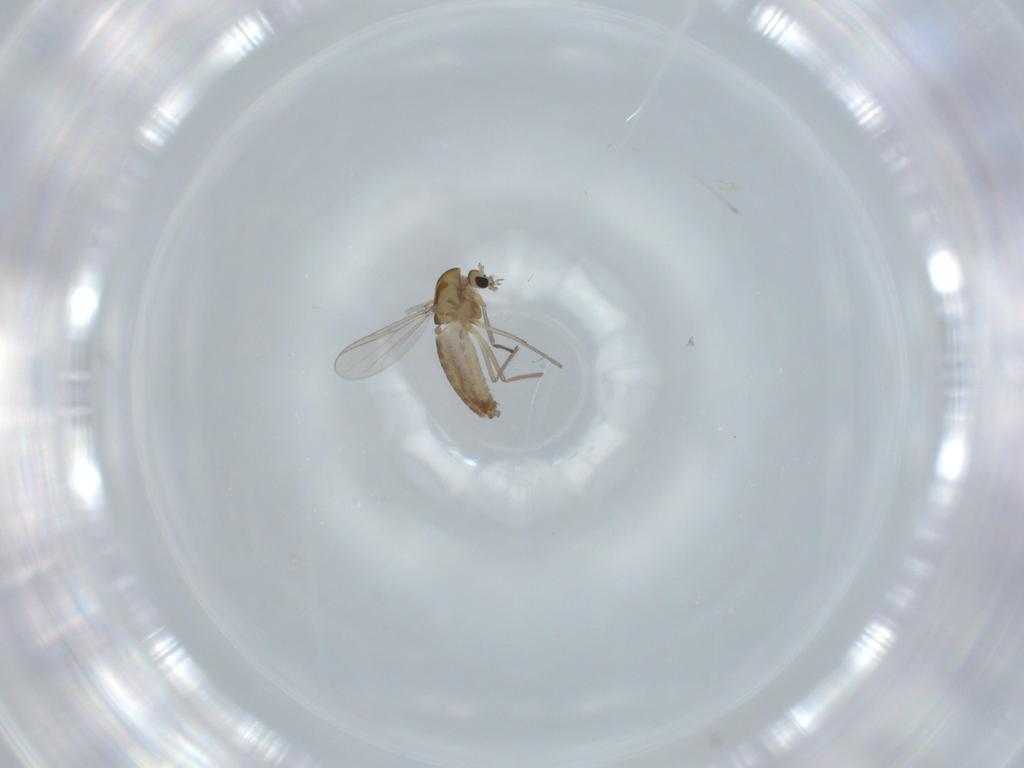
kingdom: Animalia
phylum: Arthropoda
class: Insecta
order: Diptera
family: Chironomidae
